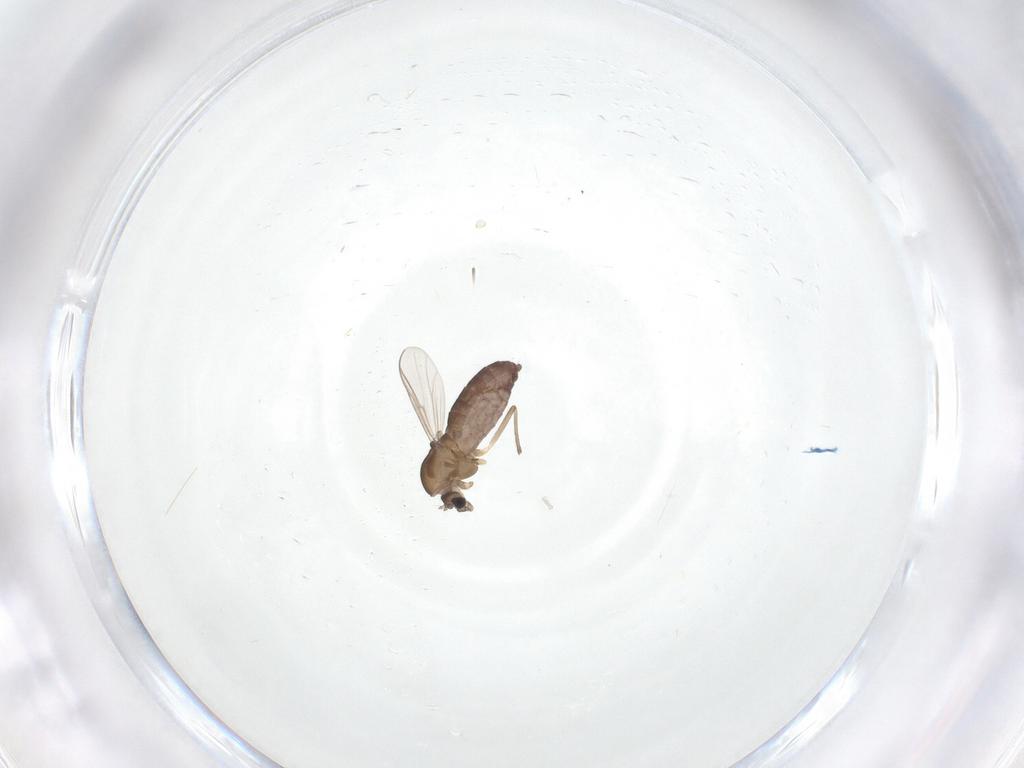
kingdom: Animalia
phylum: Arthropoda
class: Insecta
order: Diptera
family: Chironomidae
